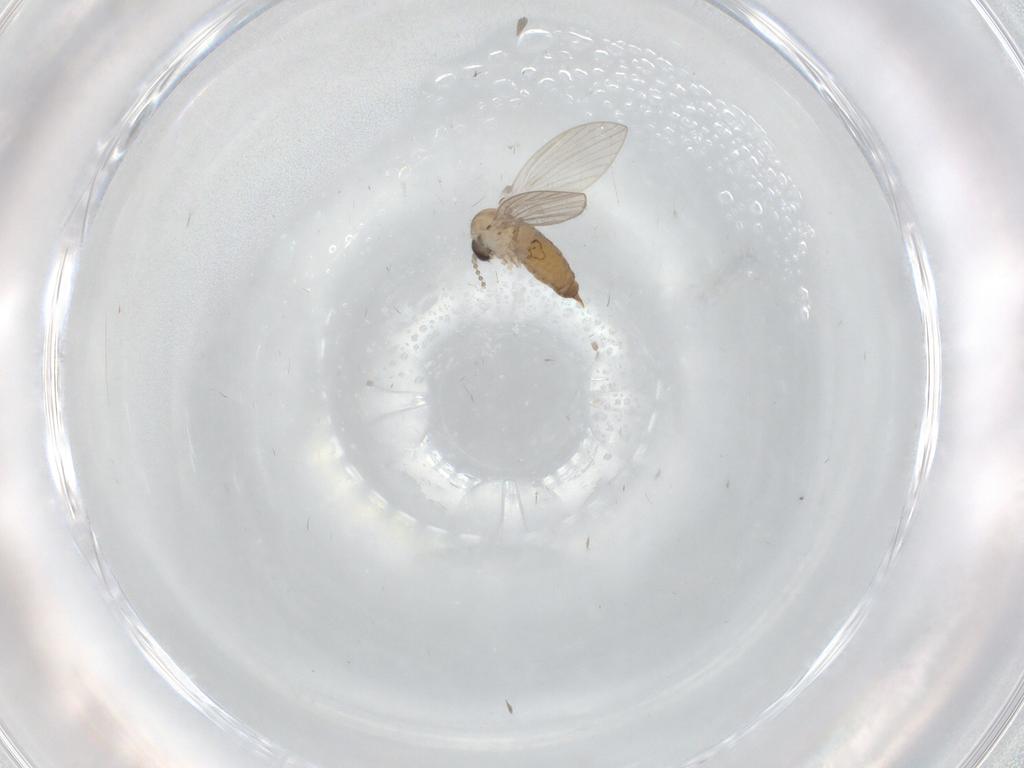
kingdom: Animalia
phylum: Arthropoda
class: Insecta
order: Diptera
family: Psychodidae
